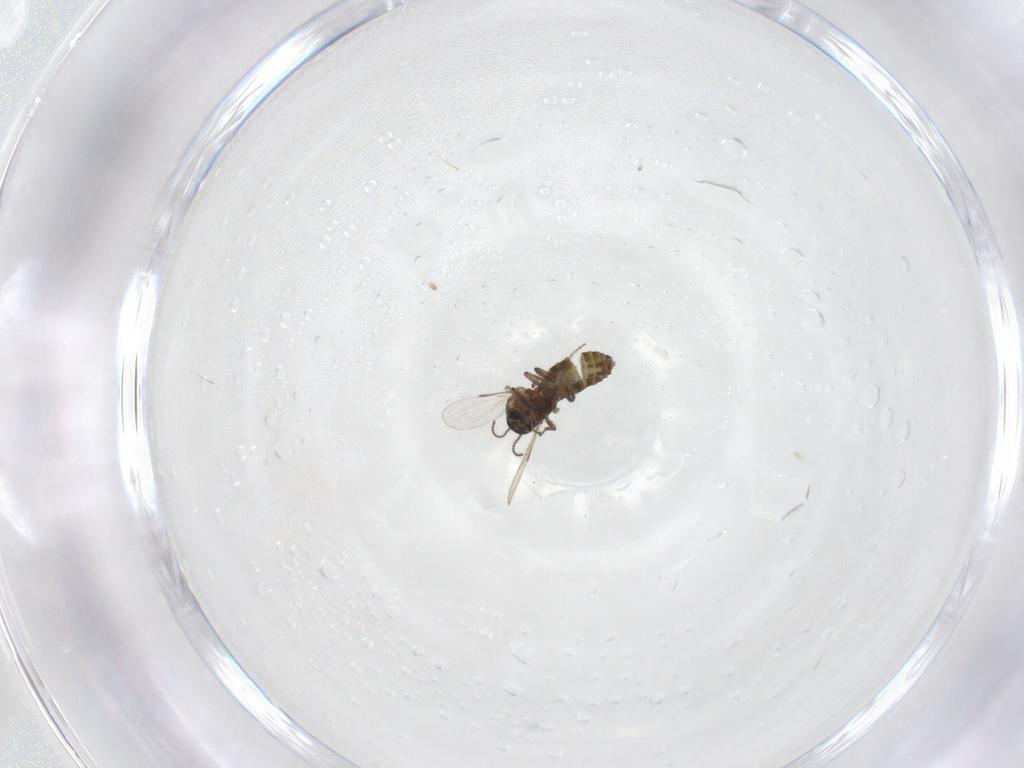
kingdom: Animalia
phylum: Arthropoda
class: Insecta
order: Diptera
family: Ceratopogonidae
